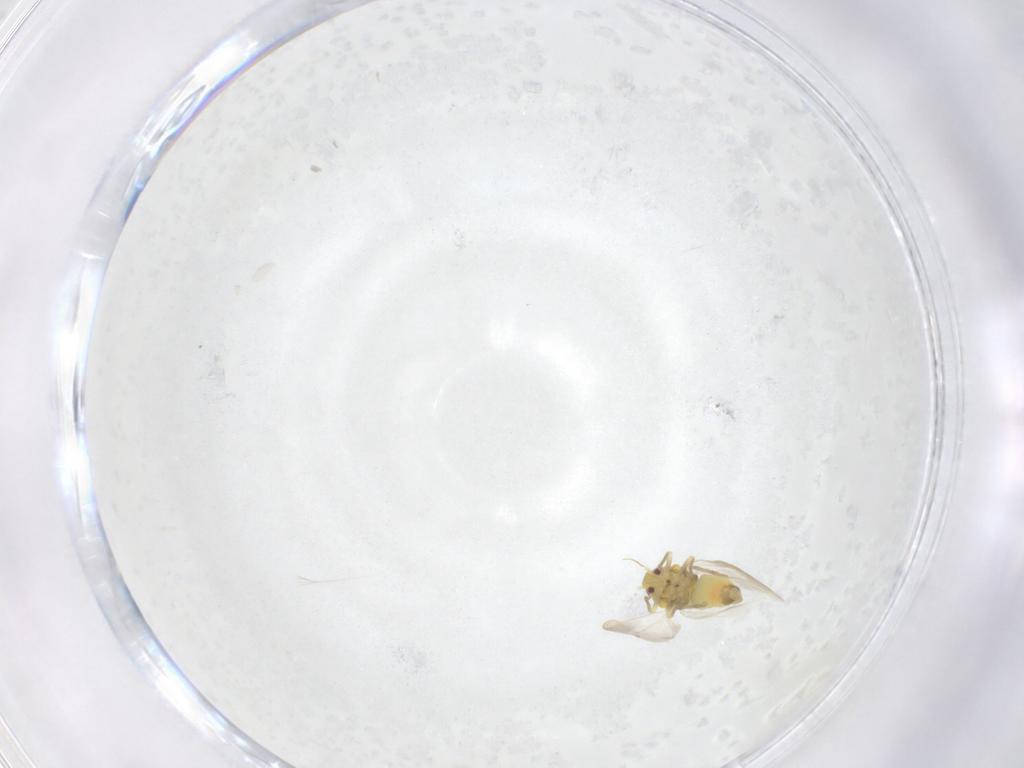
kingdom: Animalia
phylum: Arthropoda
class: Insecta
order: Hemiptera
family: Aleyrodidae
